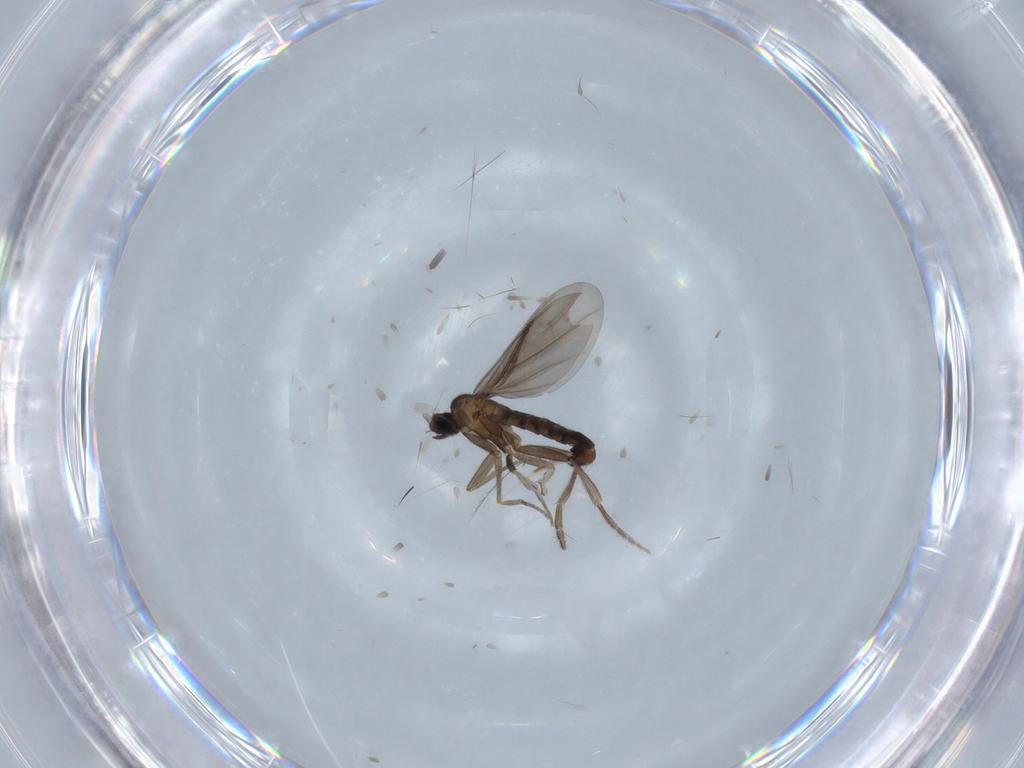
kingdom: Animalia
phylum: Arthropoda
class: Insecta
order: Diptera
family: Phoridae
